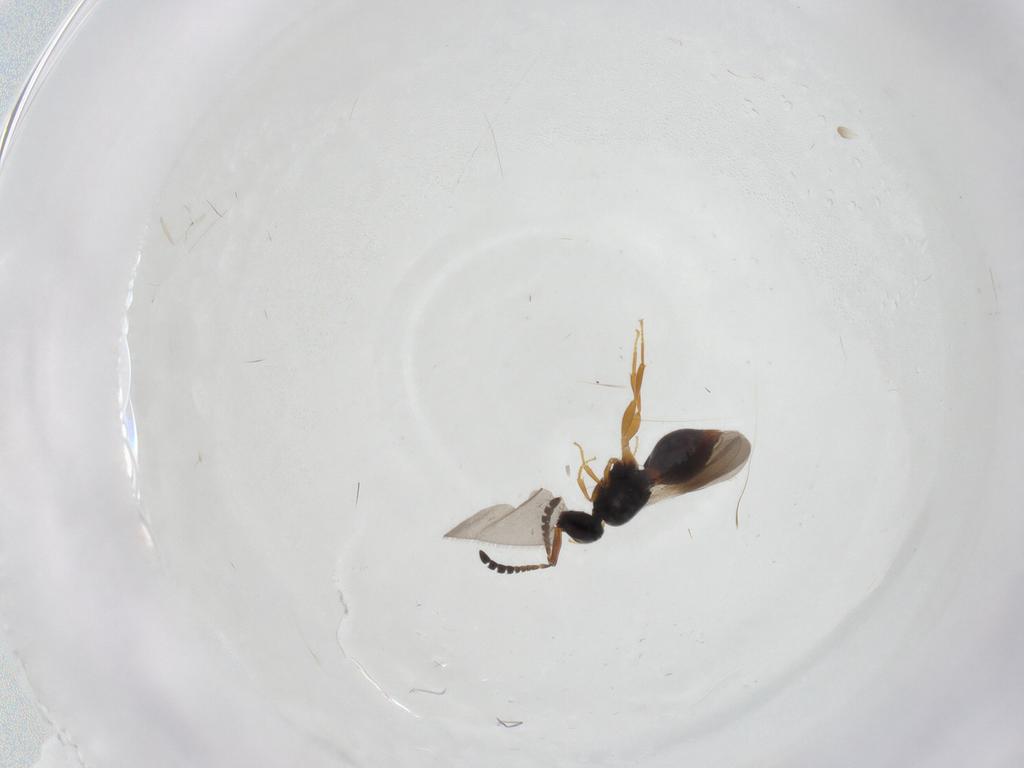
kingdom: Animalia
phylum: Arthropoda
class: Insecta
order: Hymenoptera
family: Ceraphronidae
